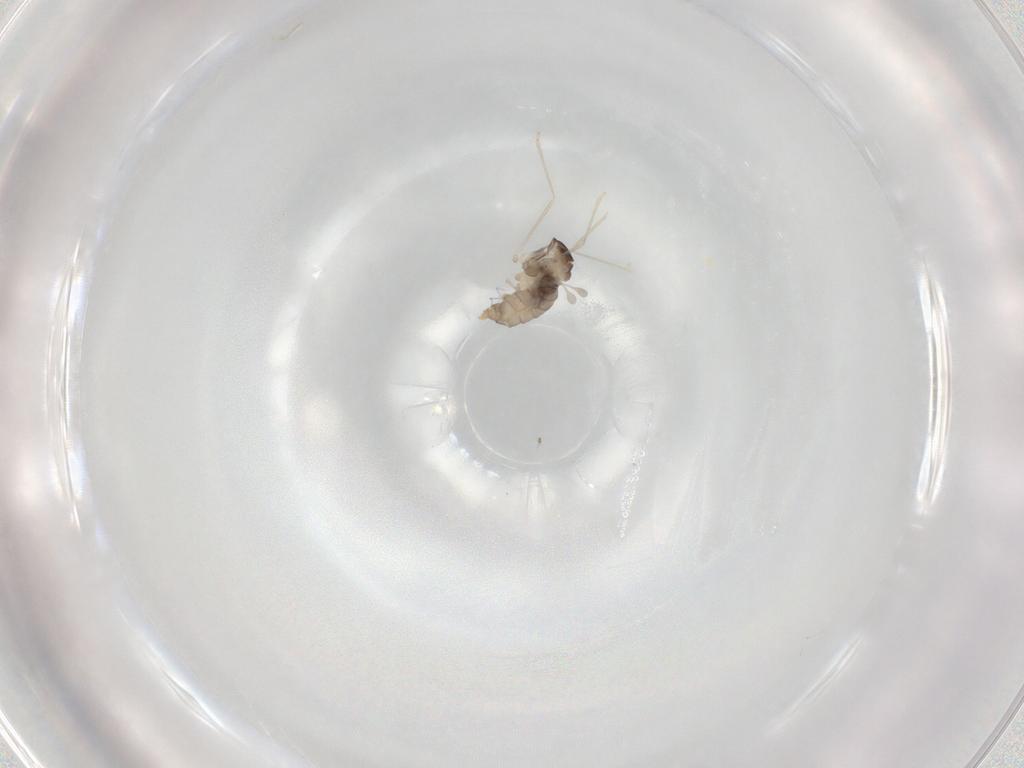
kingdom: Animalia
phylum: Arthropoda
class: Insecta
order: Diptera
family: Cecidomyiidae
